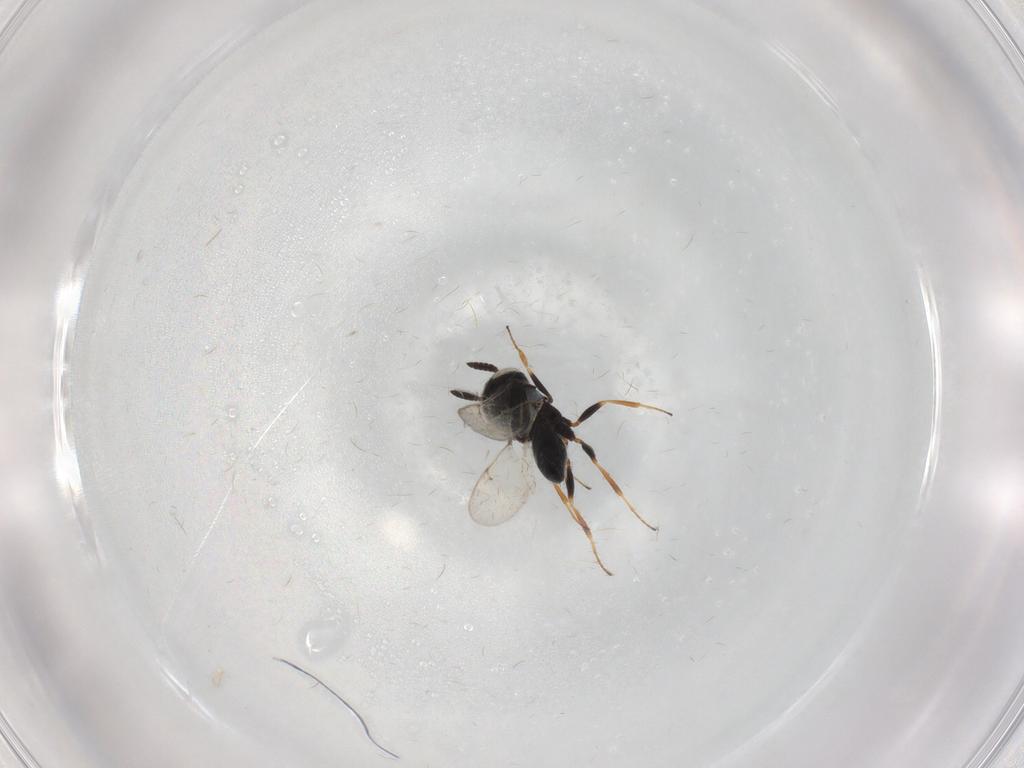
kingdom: Animalia
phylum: Arthropoda
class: Insecta
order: Coleoptera
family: Curculionidae
